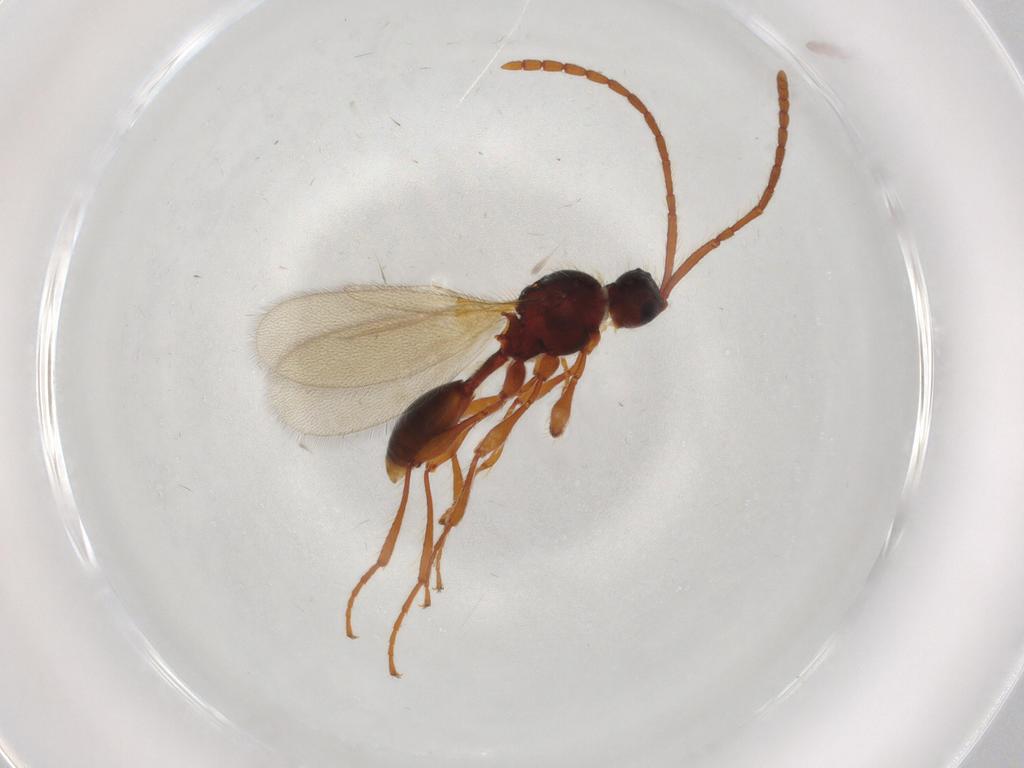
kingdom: Animalia
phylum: Arthropoda
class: Insecta
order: Hymenoptera
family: Diapriidae
